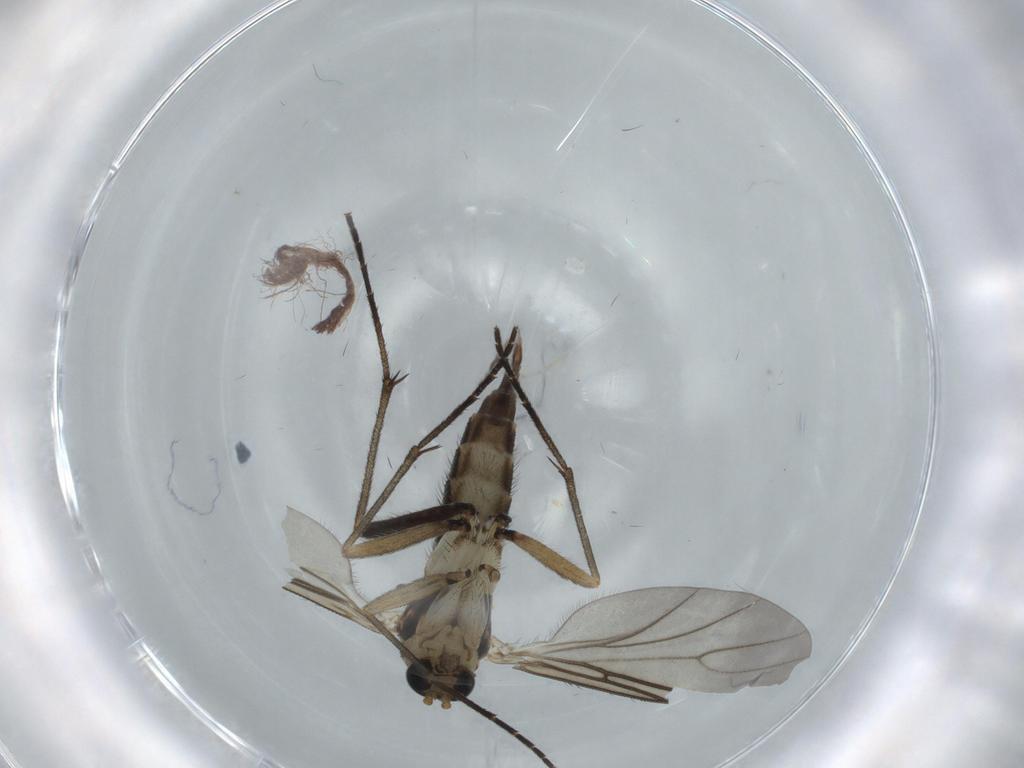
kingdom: Animalia
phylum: Arthropoda
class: Insecta
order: Diptera
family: Sphaeroceridae
